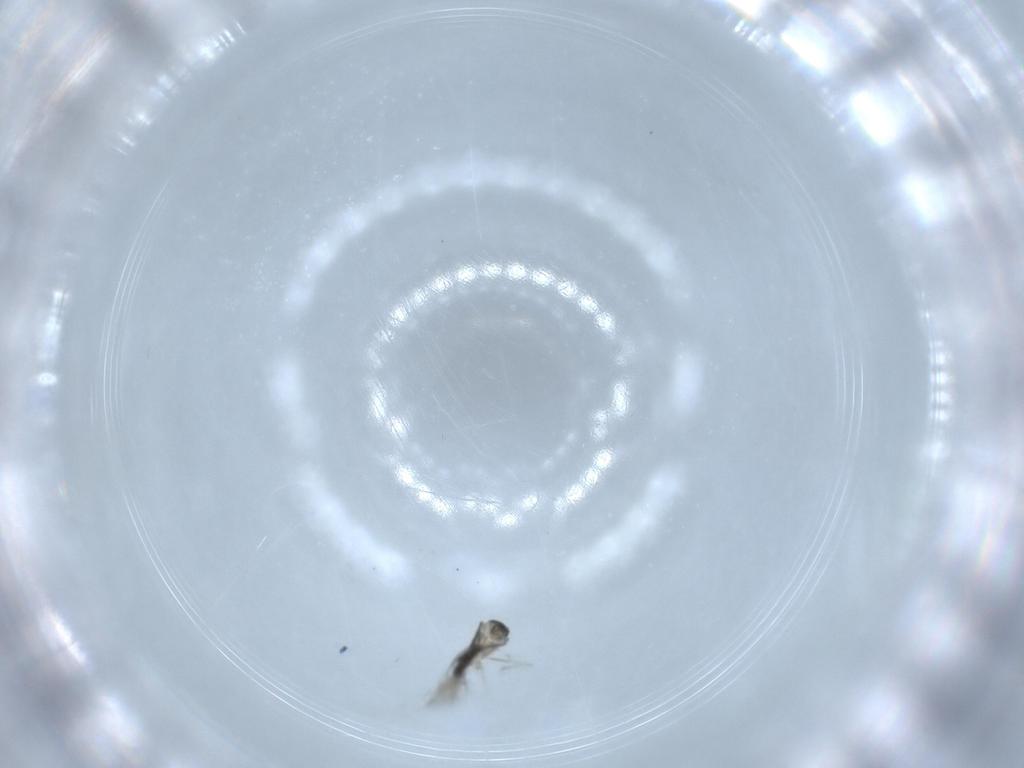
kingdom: Animalia
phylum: Arthropoda
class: Insecta
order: Diptera
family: Cecidomyiidae
